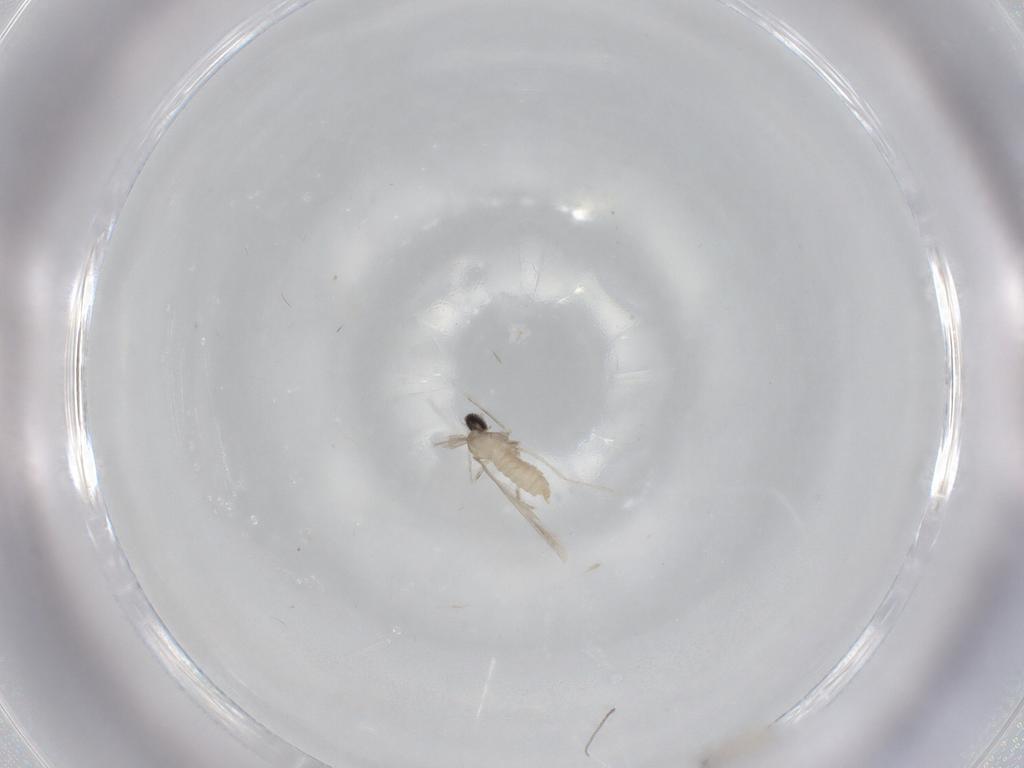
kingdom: Animalia
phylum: Arthropoda
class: Insecta
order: Diptera
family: Cecidomyiidae
